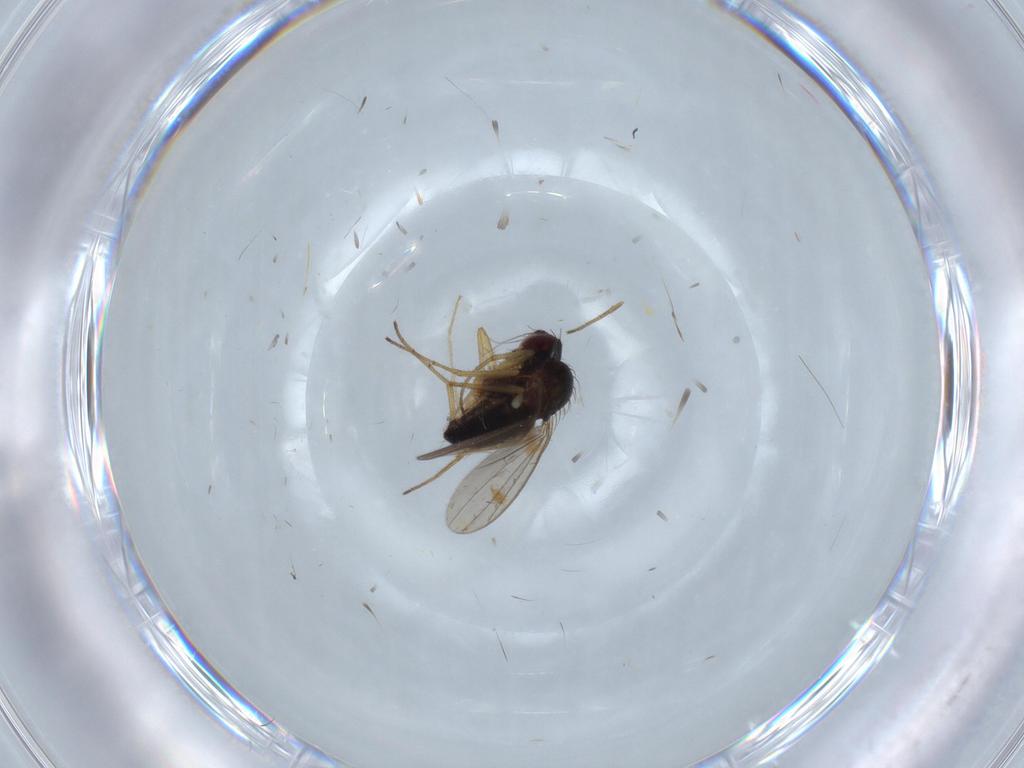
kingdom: Animalia
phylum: Arthropoda
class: Insecta
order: Diptera
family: Dolichopodidae
